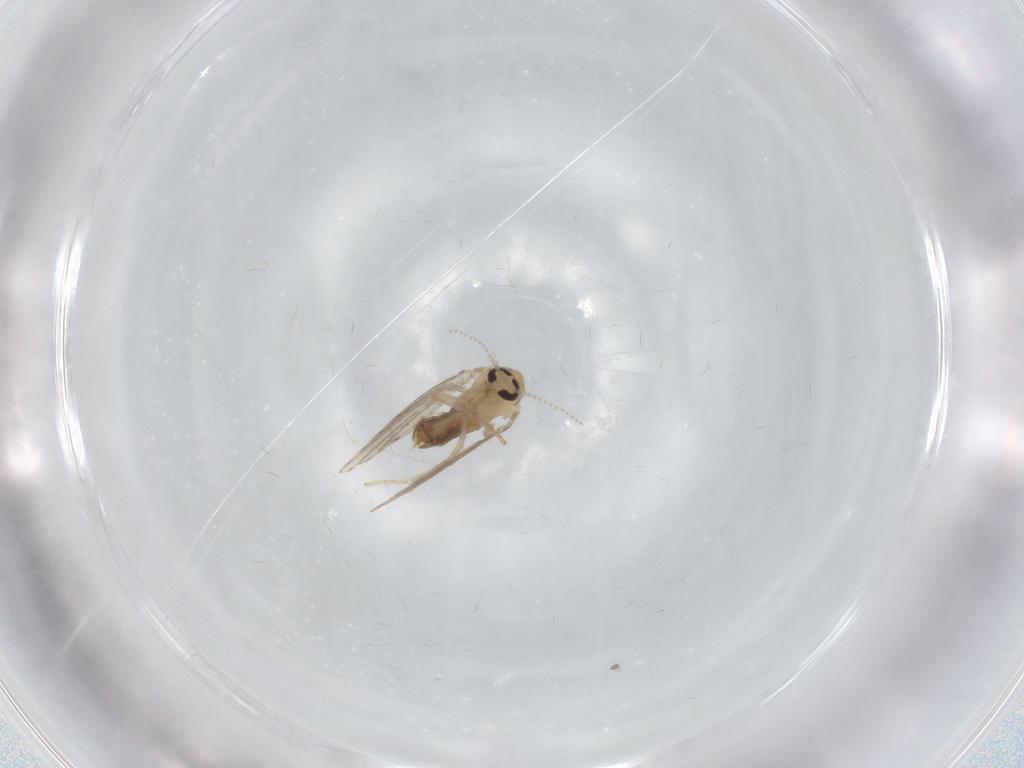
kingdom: Animalia
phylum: Arthropoda
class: Insecta
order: Diptera
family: Psychodidae
